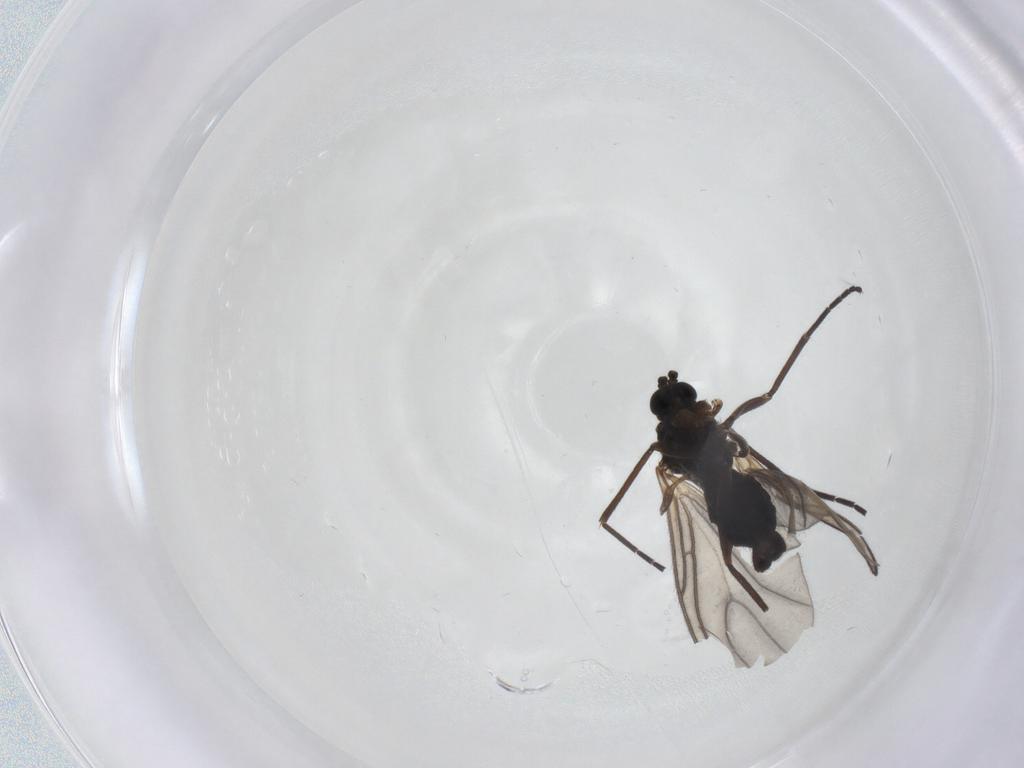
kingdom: Animalia
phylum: Arthropoda
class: Insecta
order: Diptera
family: Sciaridae
